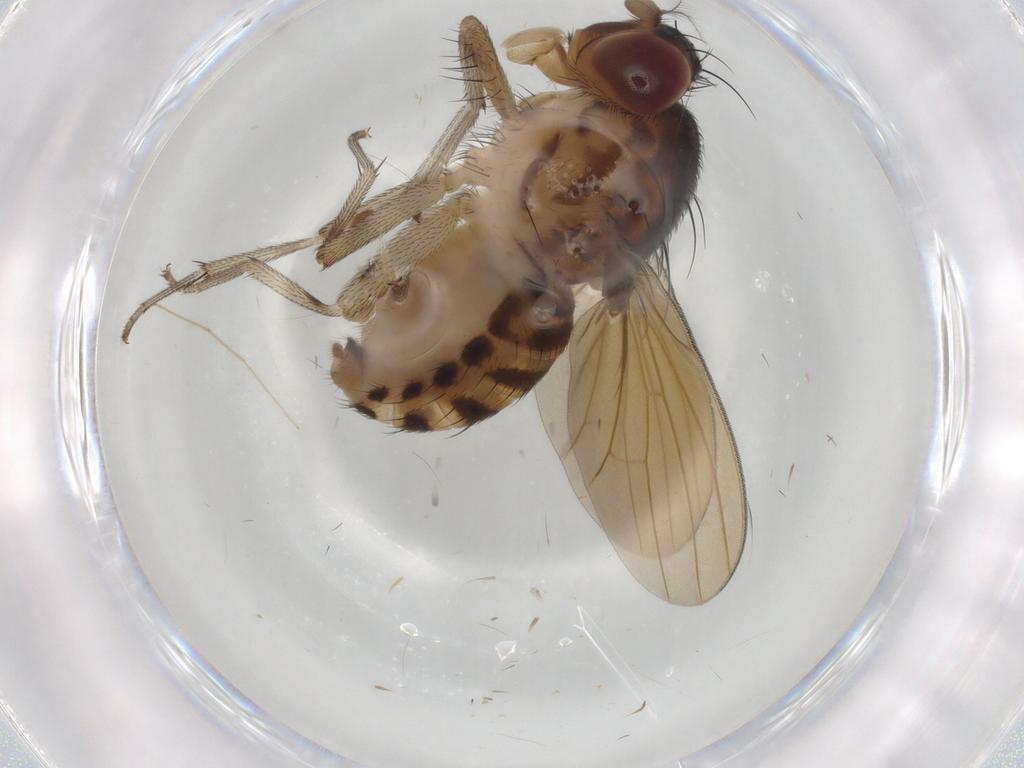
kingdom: Animalia
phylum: Arthropoda
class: Insecta
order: Diptera
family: Lauxaniidae
